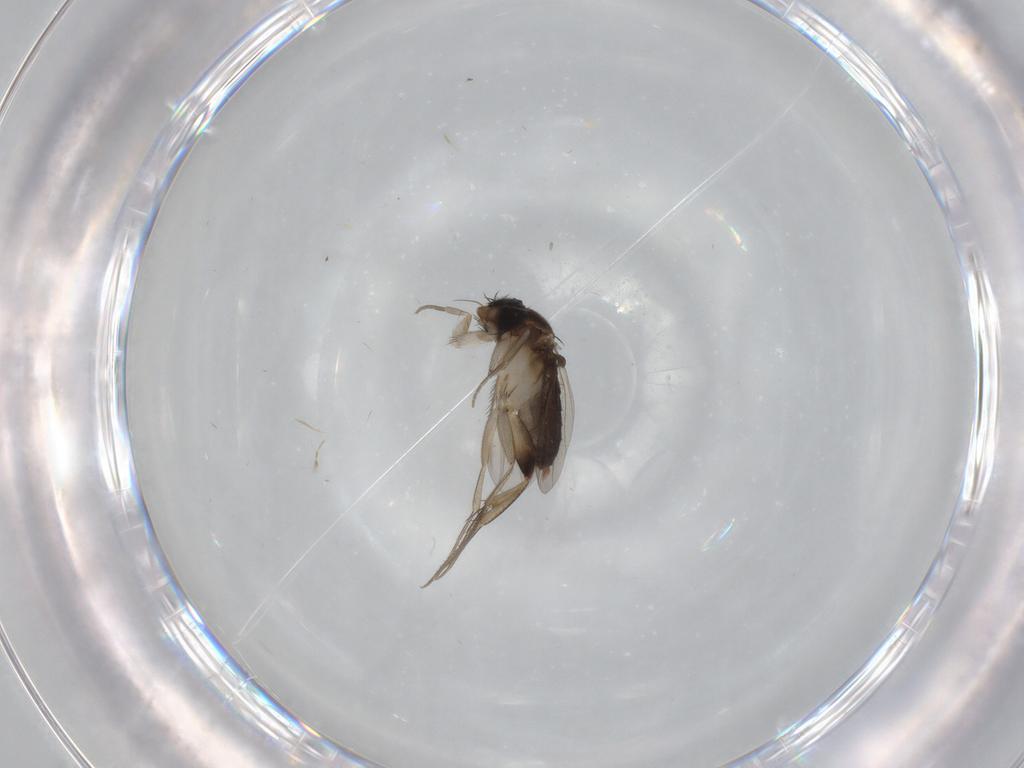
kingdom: Animalia
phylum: Arthropoda
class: Insecta
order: Diptera
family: Phoridae
